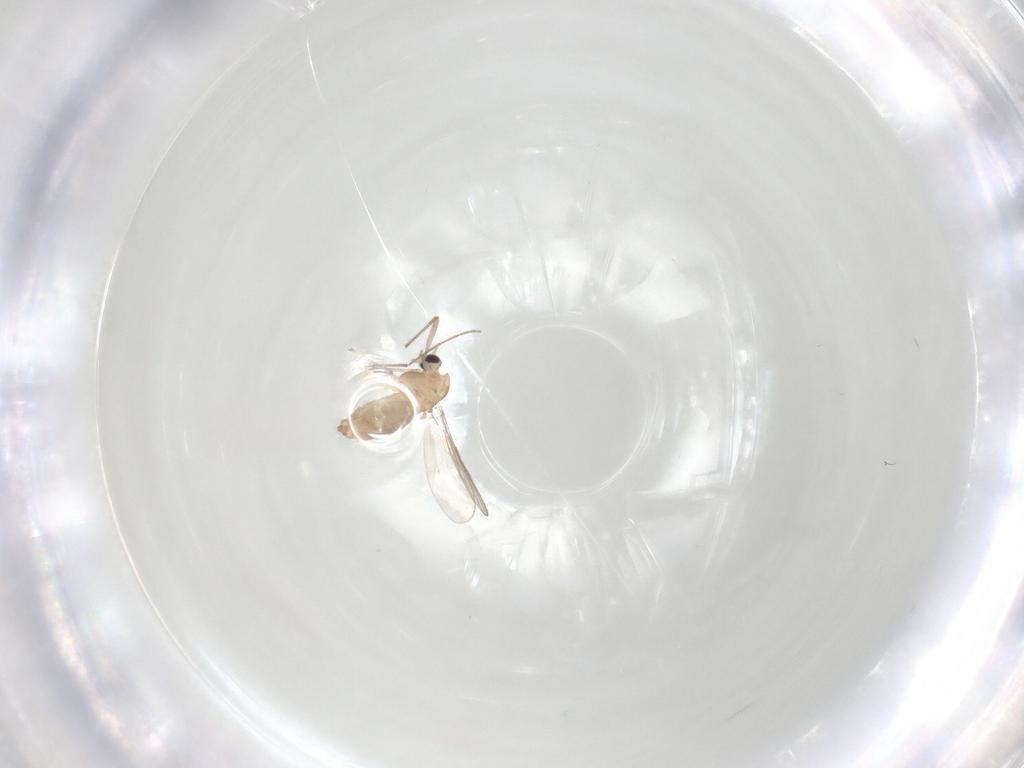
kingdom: Animalia
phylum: Arthropoda
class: Insecta
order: Diptera
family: Chironomidae
